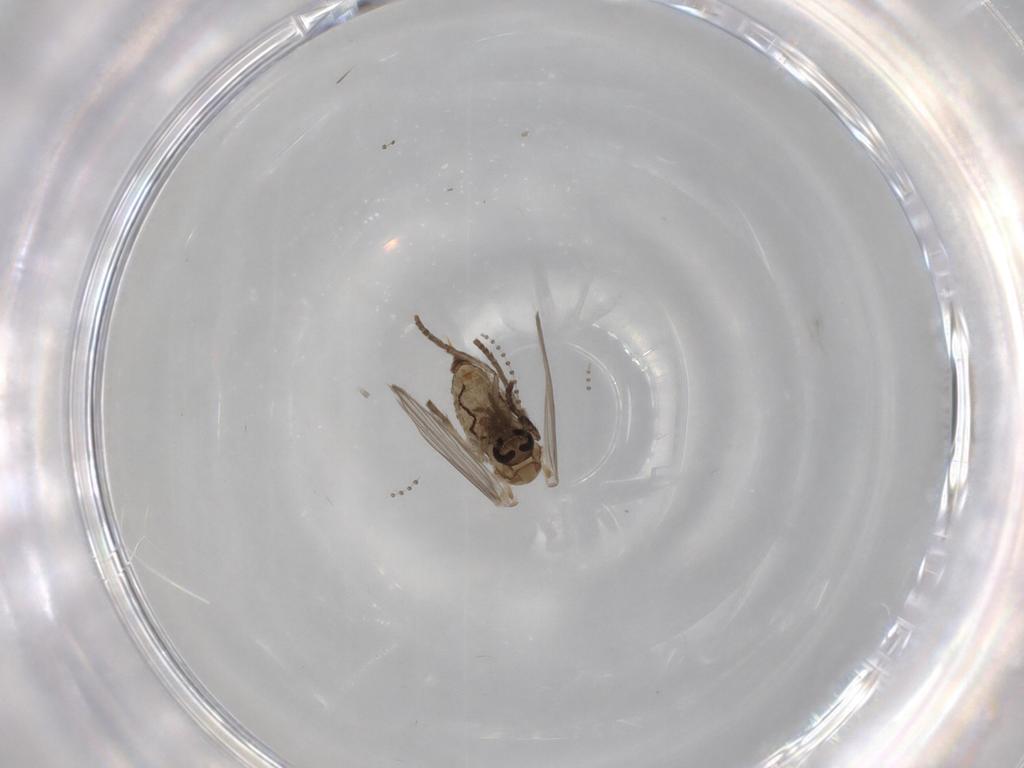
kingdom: Animalia
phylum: Arthropoda
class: Insecta
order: Diptera
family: Psychodidae
